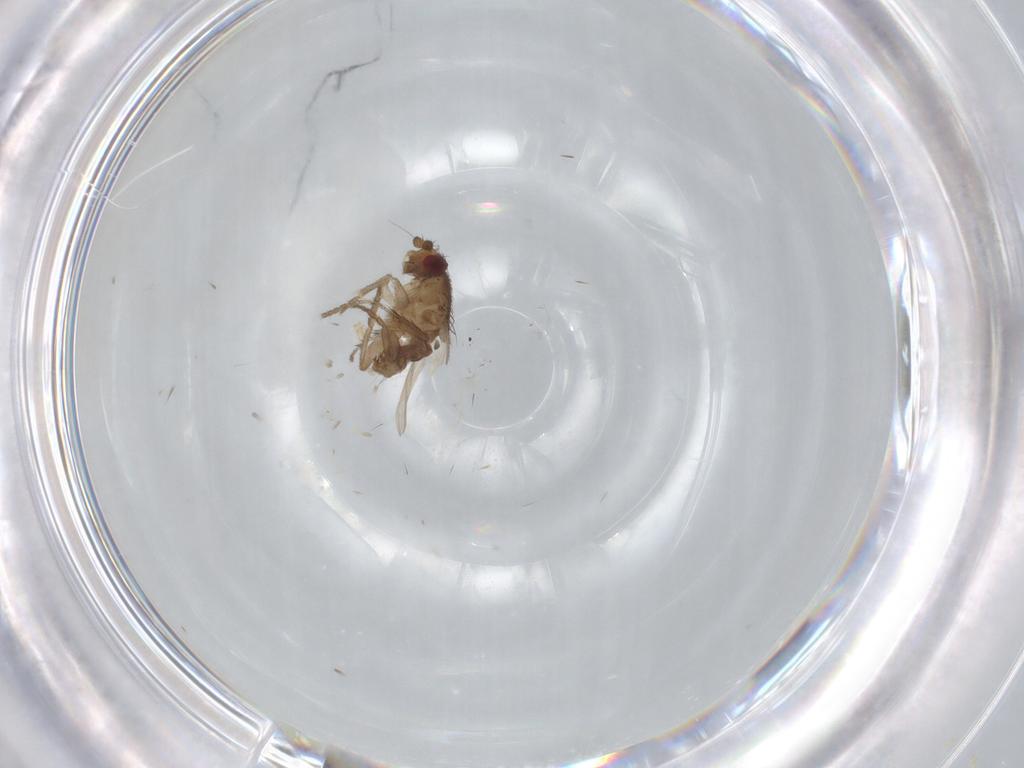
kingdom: Animalia
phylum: Arthropoda
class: Insecta
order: Diptera
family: Sphaeroceridae
